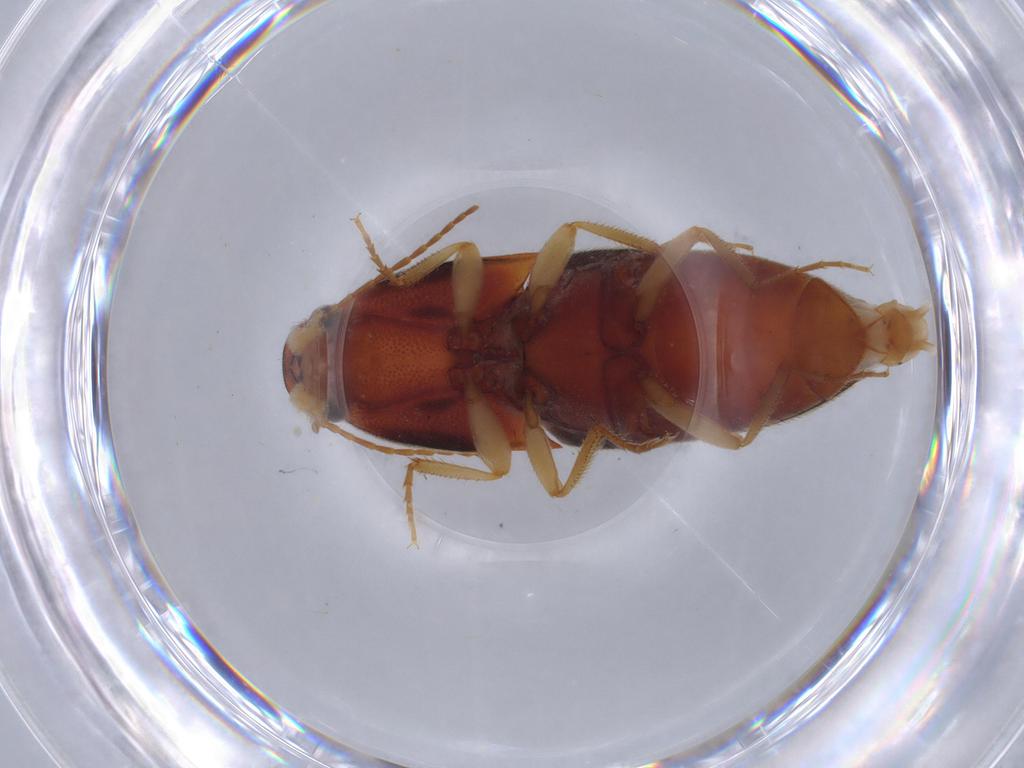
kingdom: Animalia
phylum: Arthropoda
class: Insecta
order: Coleoptera
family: Elateridae
